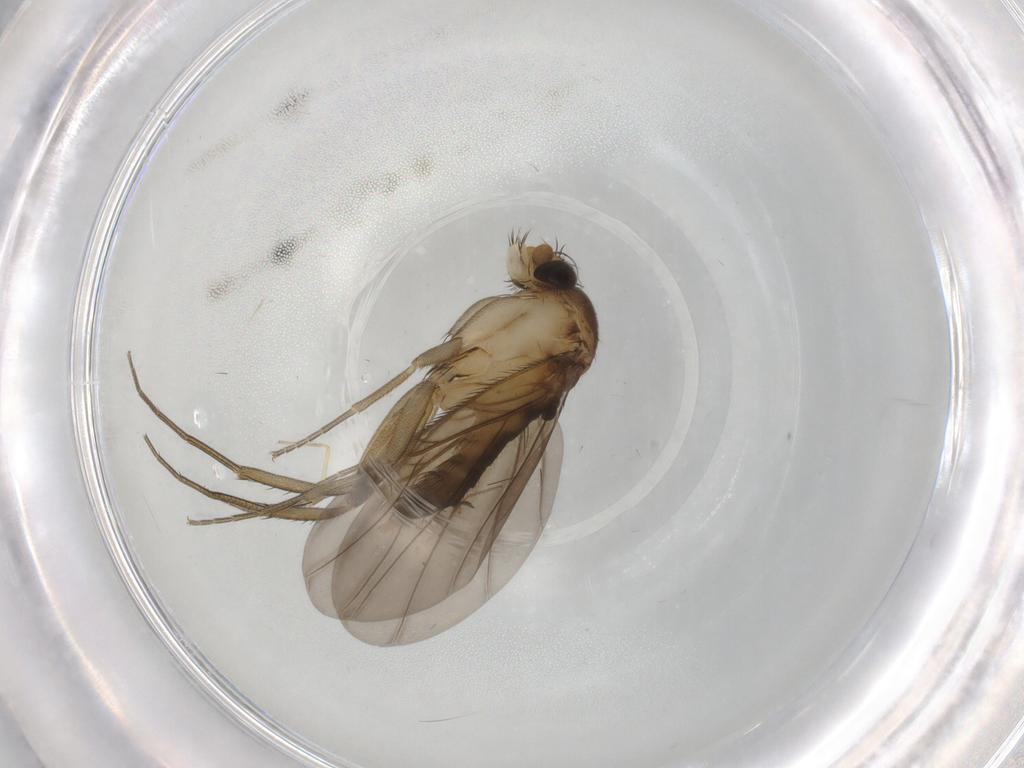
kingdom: Animalia
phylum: Arthropoda
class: Insecta
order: Diptera
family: Phoridae
